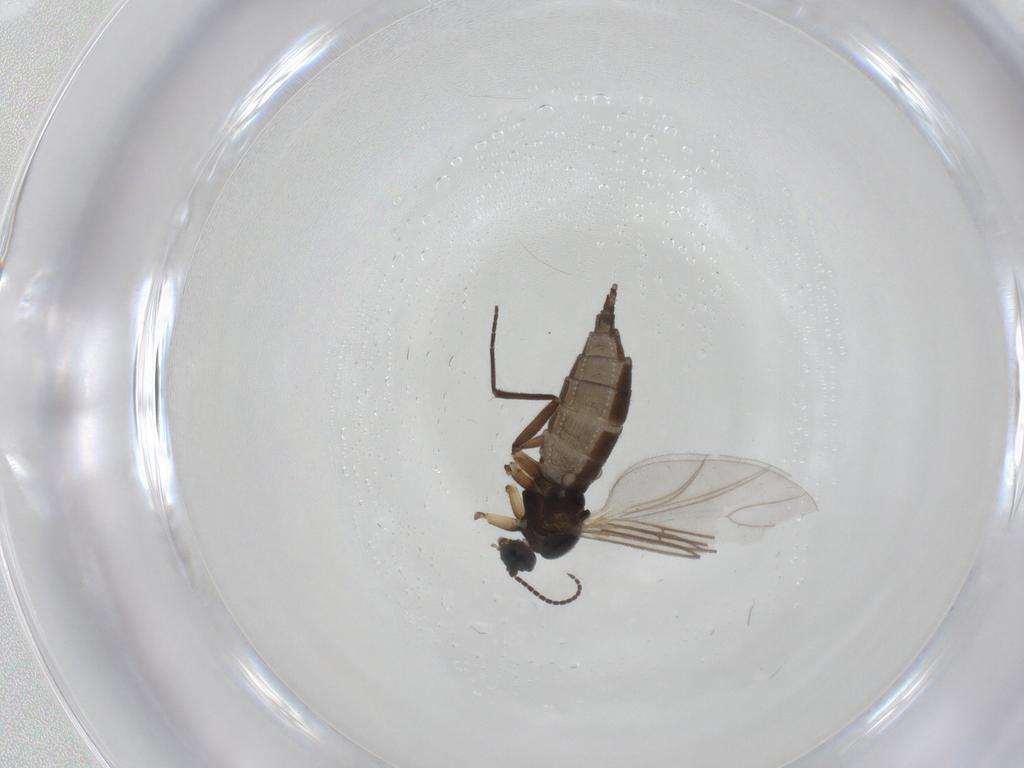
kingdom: Animalia
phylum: Arthropoda
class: Insecta
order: Diptera
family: Sciaridae
